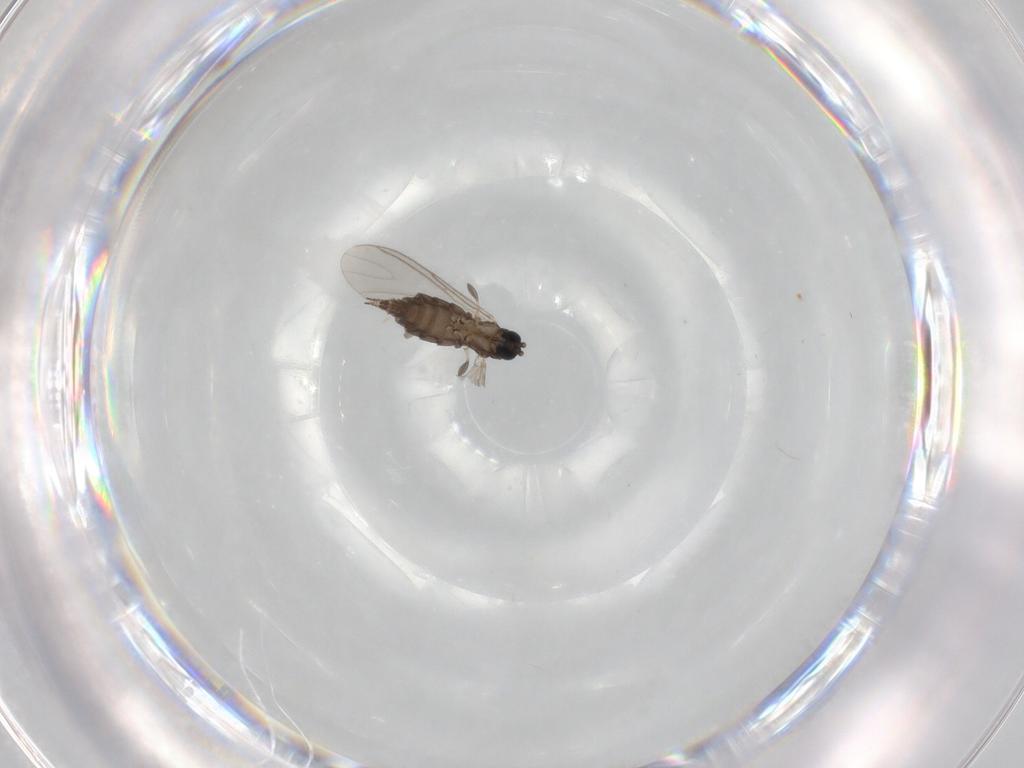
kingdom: Animalia
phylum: Arthropoda
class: Insecta
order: Diptera
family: Sciaridae
